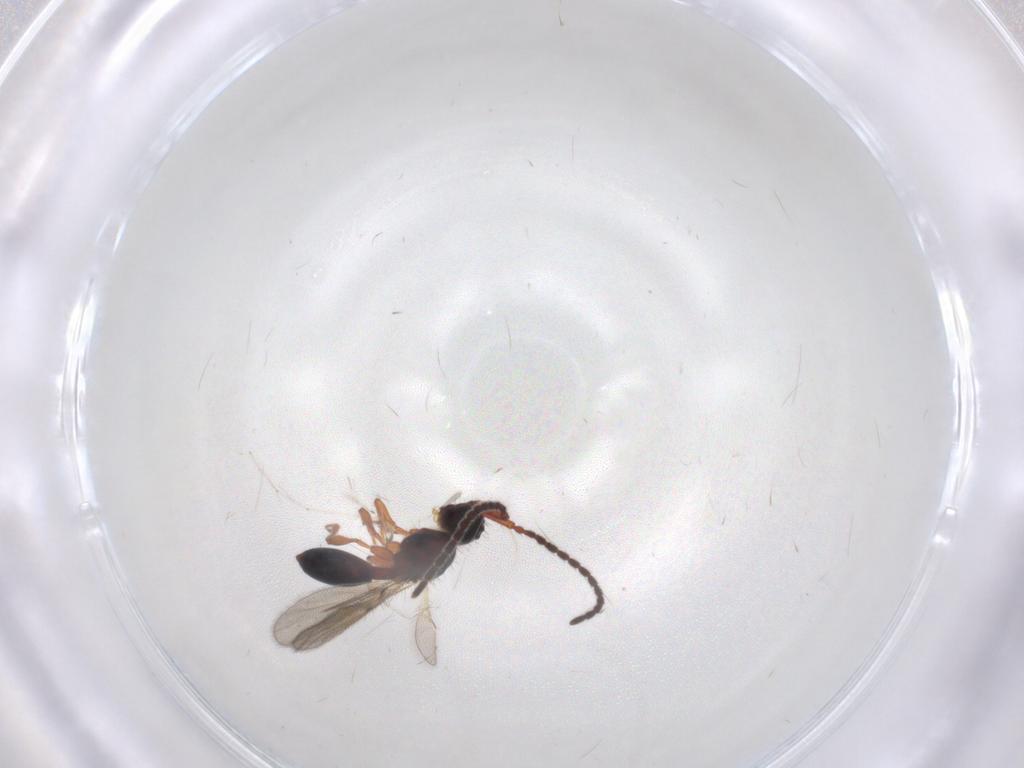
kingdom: Animalia
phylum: Arthropoda
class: Insecta
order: Hymenoptera
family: Diapriidae
